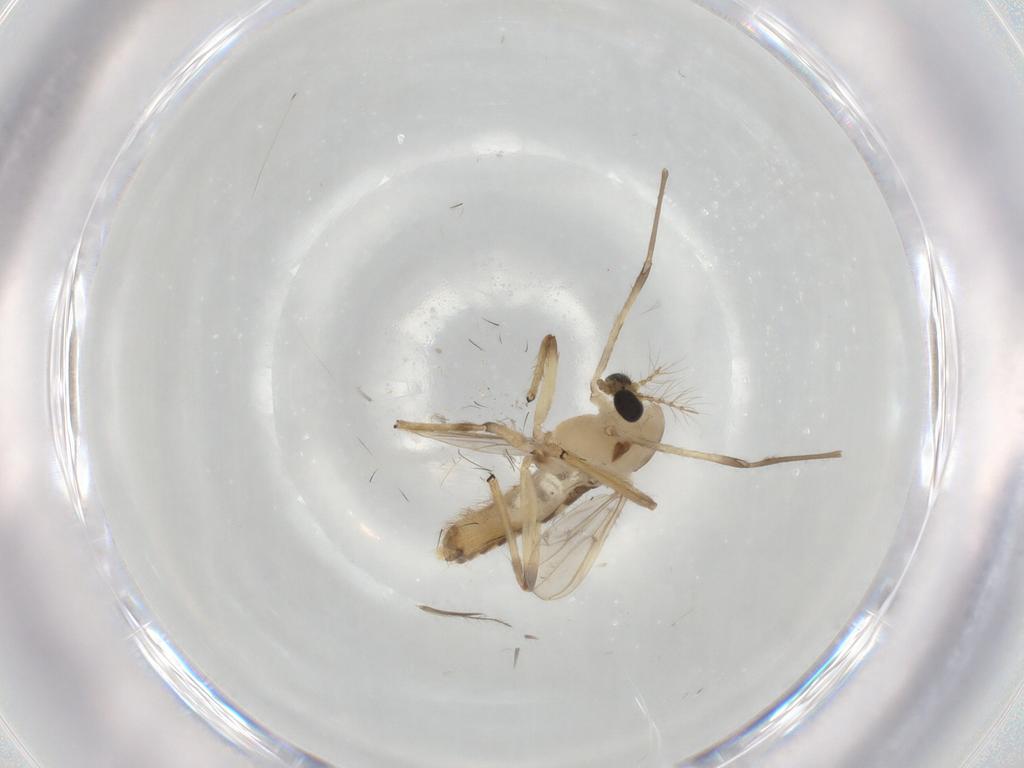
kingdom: Animalia
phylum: Arthropoda
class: Insecta
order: Diptera
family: Chironomidae
